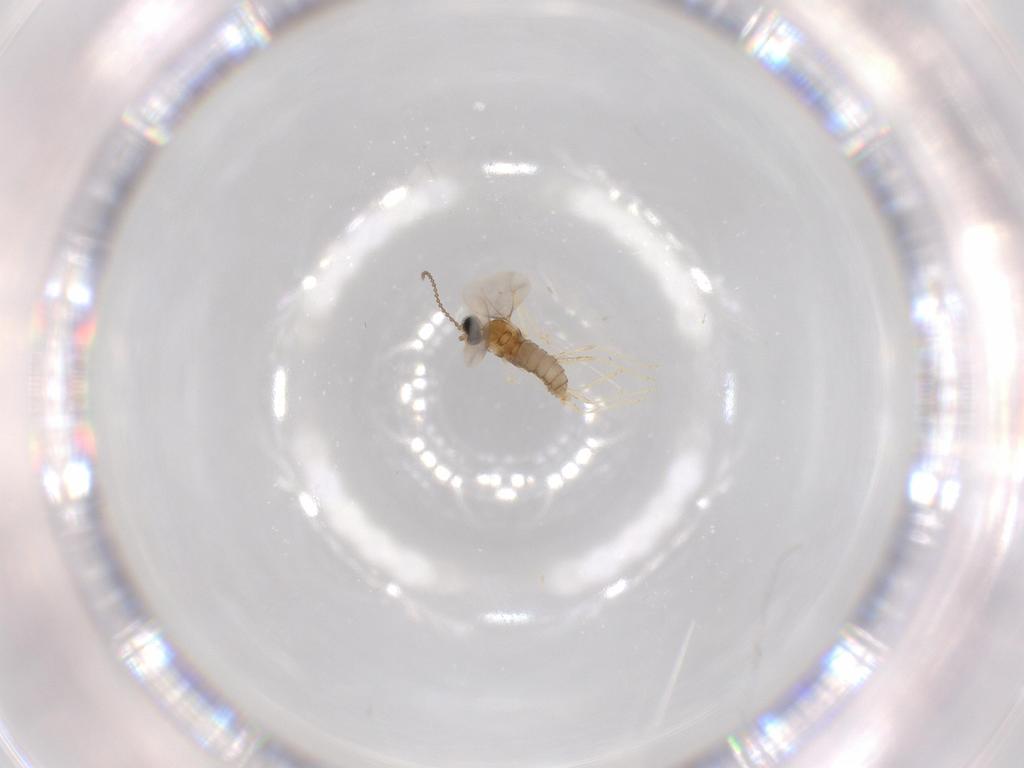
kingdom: Animalia
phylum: Arthropoda
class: Insecta
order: Diptera
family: Cecidomyiidae
